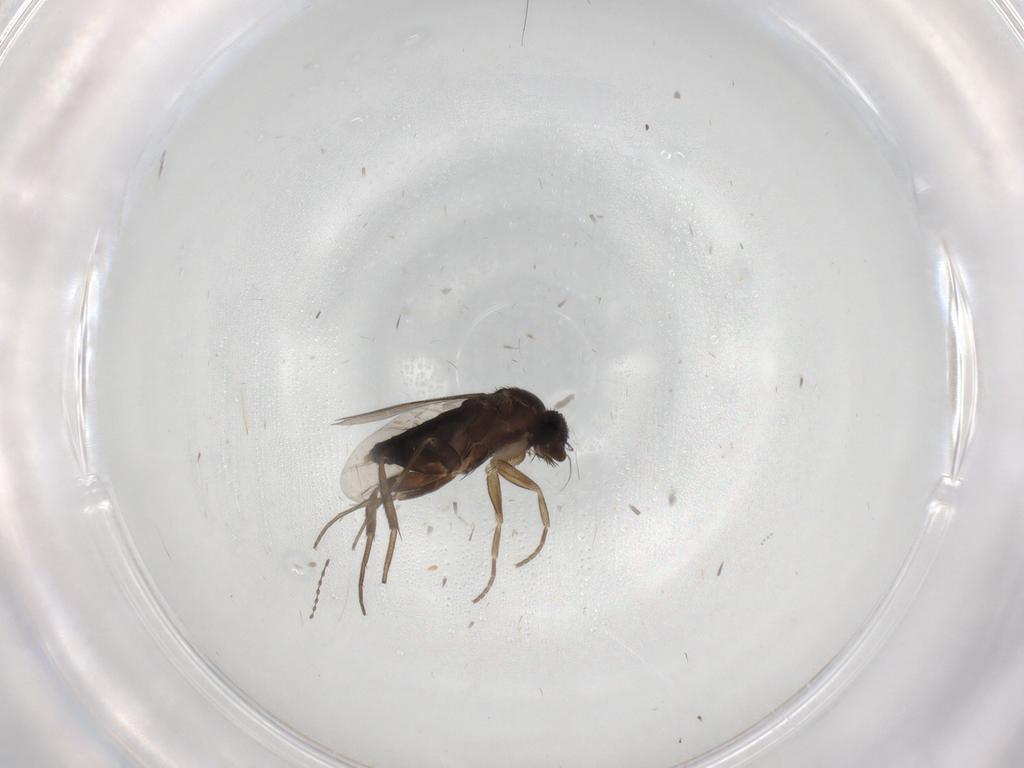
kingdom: Animalia
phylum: Arthropoda
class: Insecta
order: Diptera
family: Phoridae
